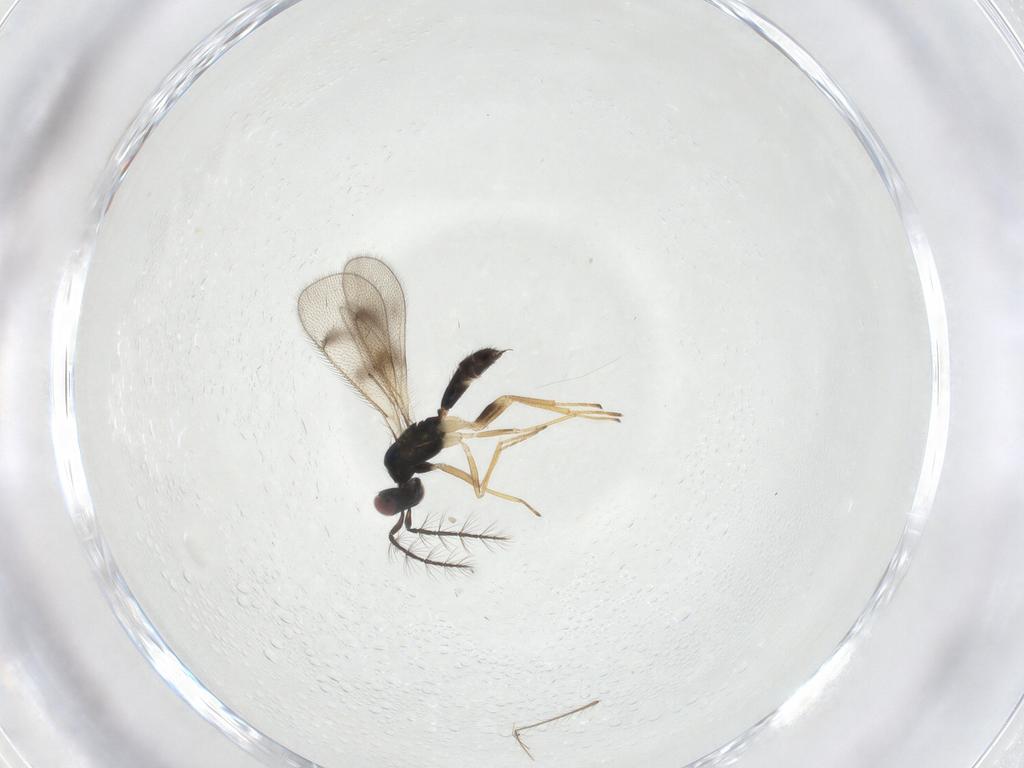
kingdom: Animalia
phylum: Arthropoda
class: Insecta
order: Hymenoptera
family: Eulophidae
